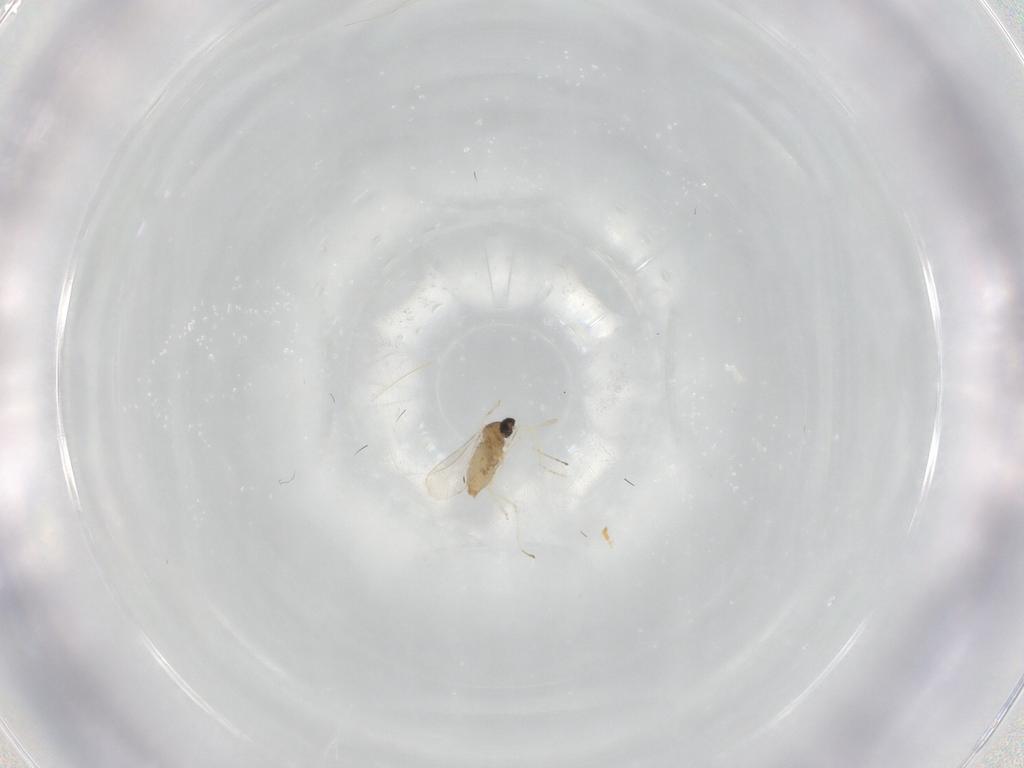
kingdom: Animalia
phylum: Arthropoda
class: Insecta
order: Diptera
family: Cecidomyiidae
